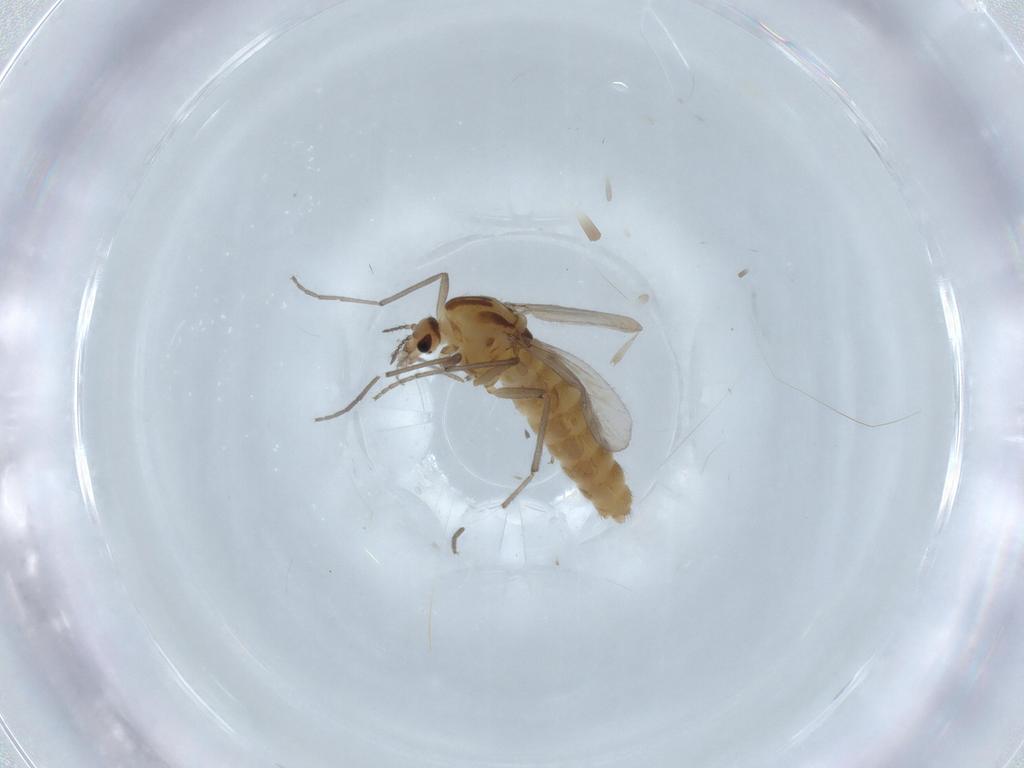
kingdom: Animalia
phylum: Arthropoda
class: Insecta
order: Diptera
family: Chironomidae
